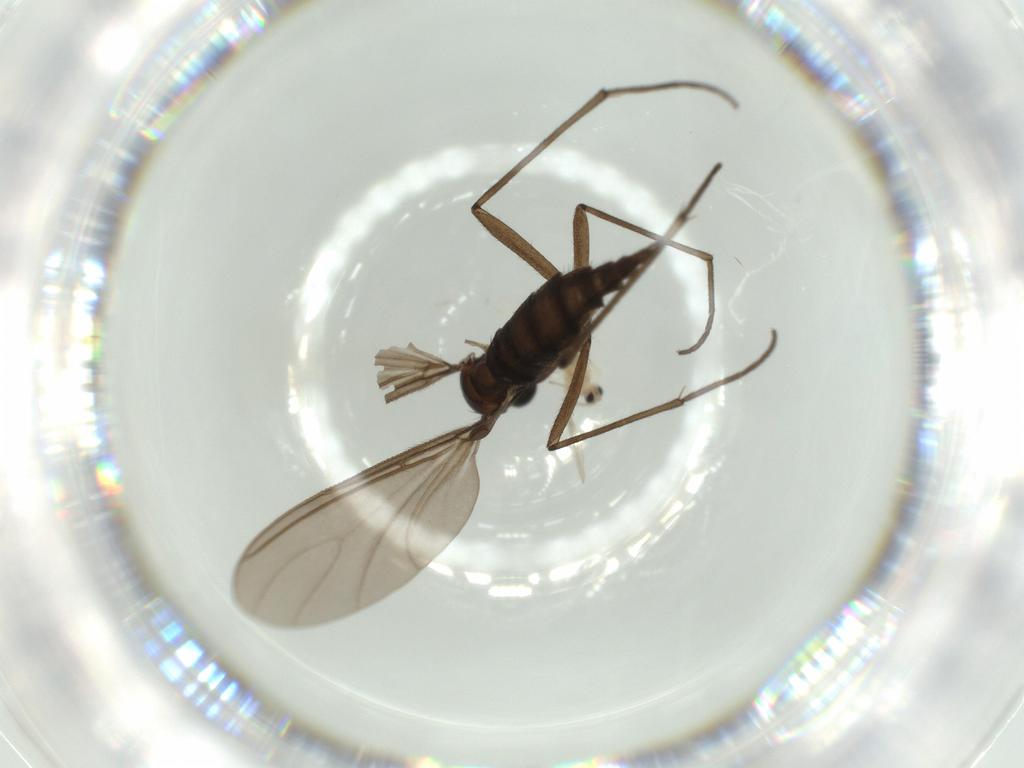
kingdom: Animalia
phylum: Arthropoda
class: Insecta
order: Diptera
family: Cecidomyiidae
